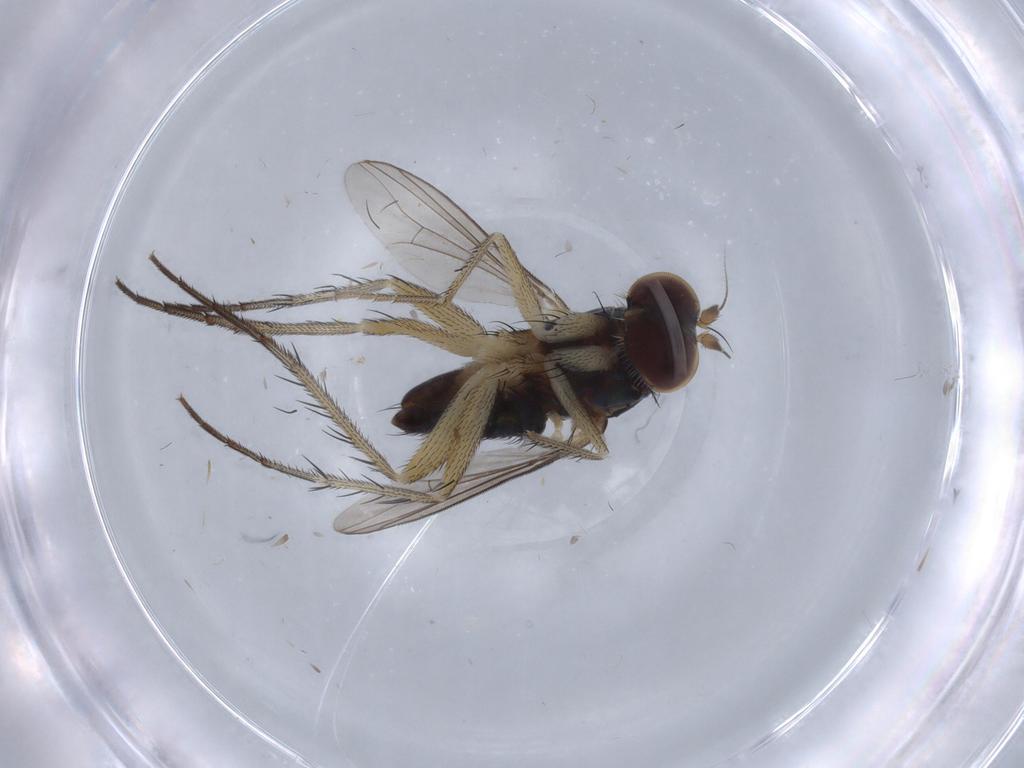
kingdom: Animalia
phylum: Arthropoda
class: Insecta
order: Diptera
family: Dolichopodidae
